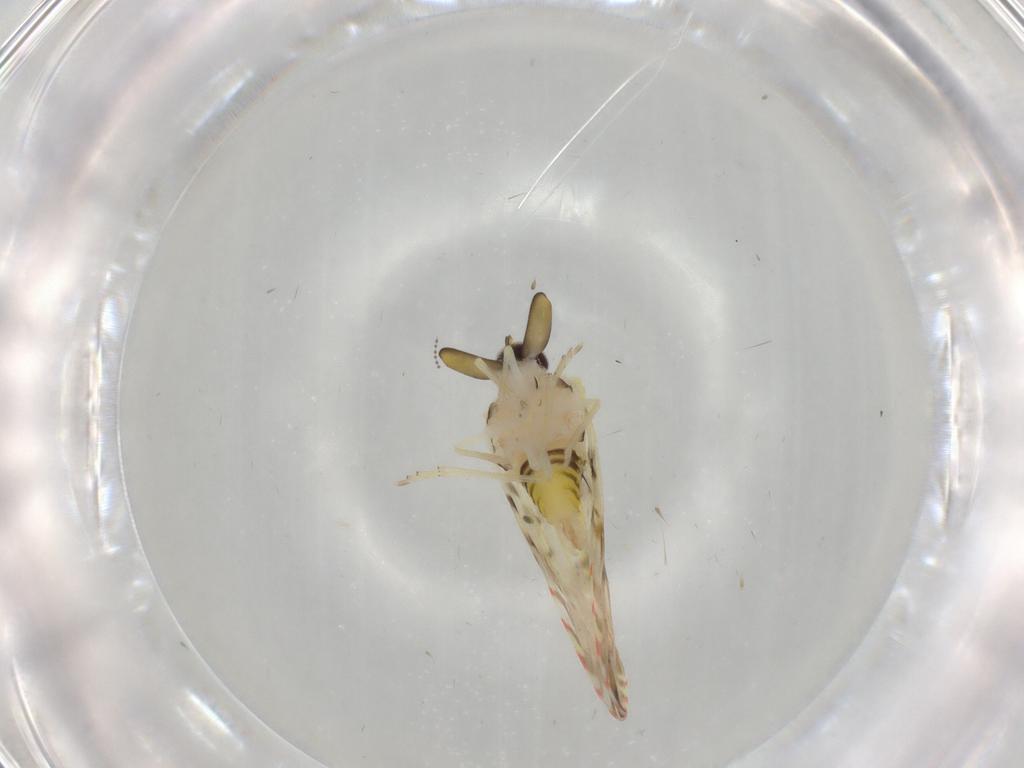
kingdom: Animalia
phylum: Arthropoda
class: Insecta
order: Hemiptera
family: Derbidae
